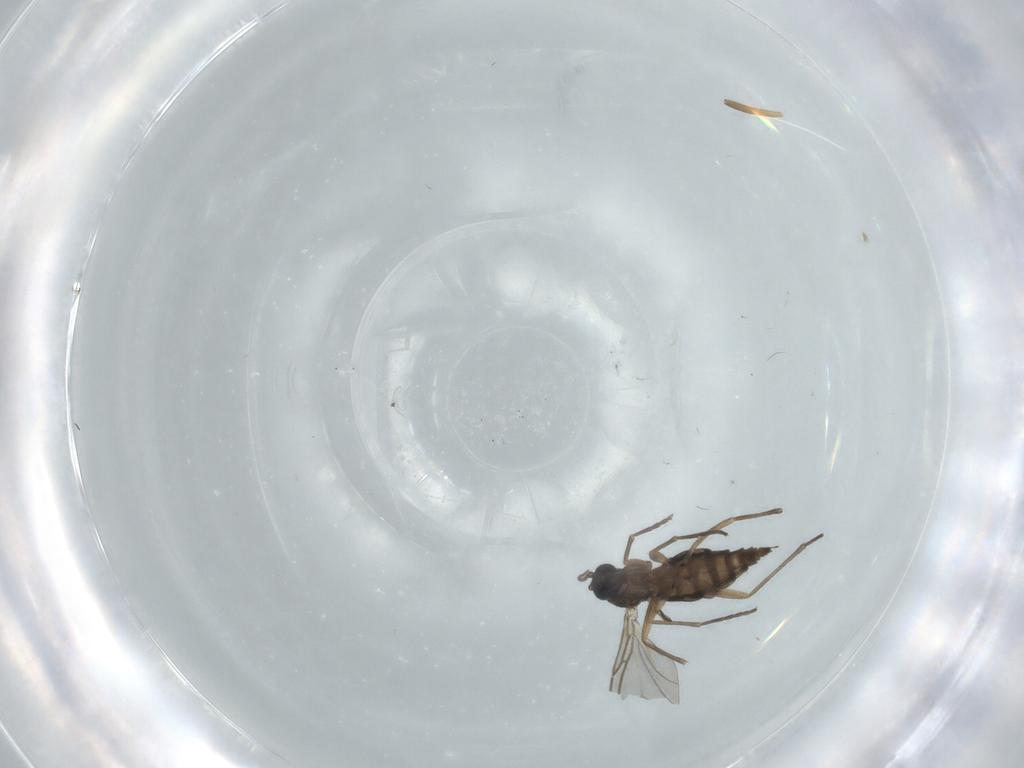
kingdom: Animalia
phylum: Arthropoda
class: Insecta
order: Diptera
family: Sciaridae
